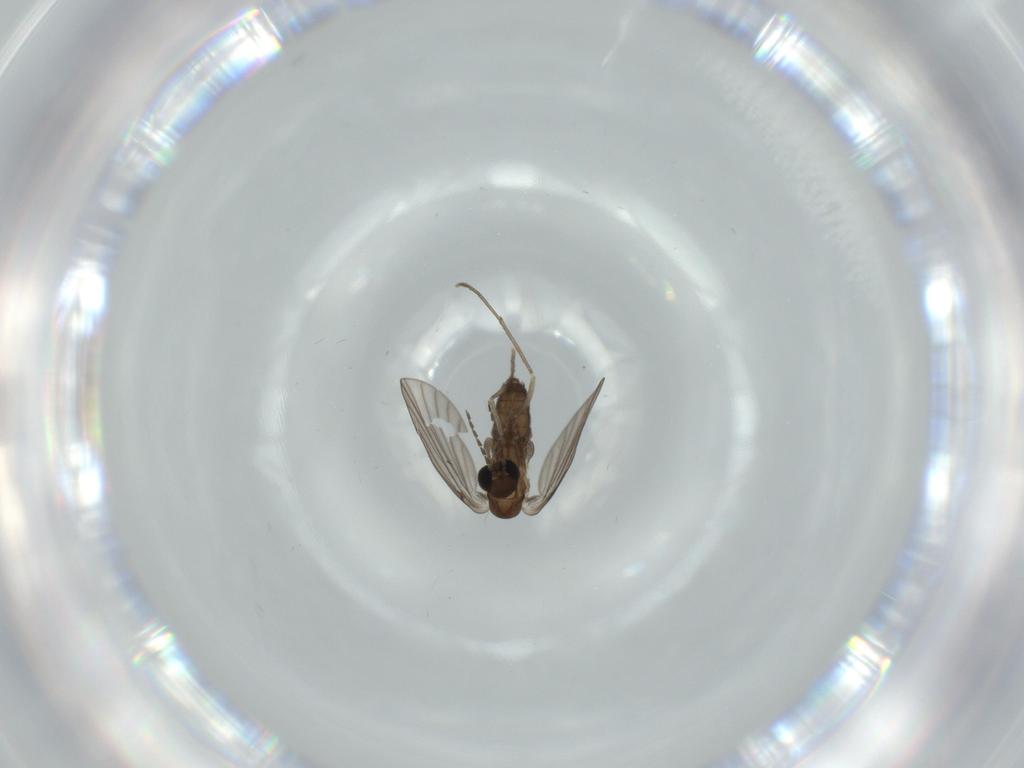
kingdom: Animalia
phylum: Arthropoda
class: Insecta
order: Diptera
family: Psychodidae
